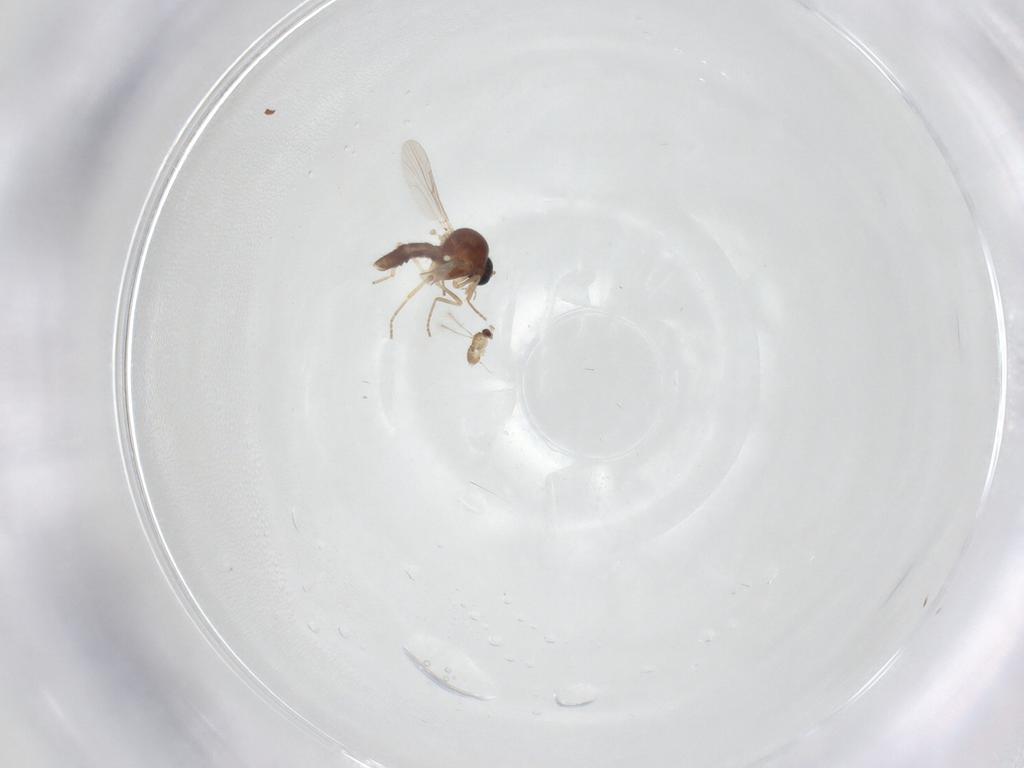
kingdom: Animalia
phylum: Arthropoda
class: Insecta
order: Diptera
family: Ceratopogonidae
